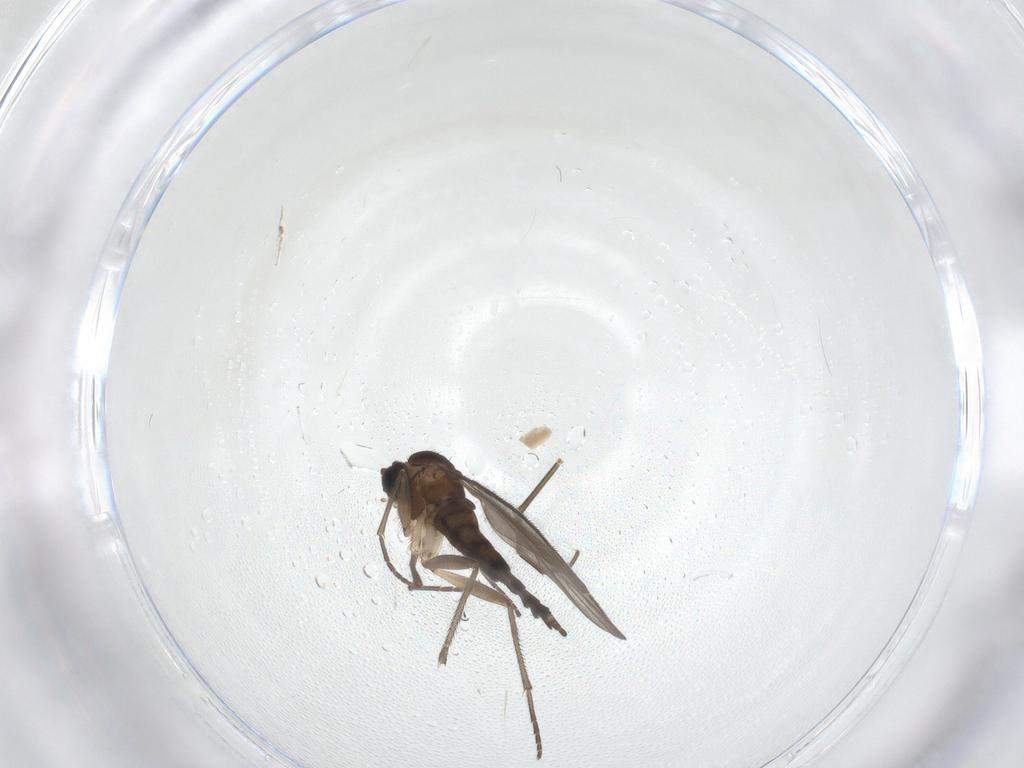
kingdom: Animalia
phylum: Arthropoda
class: Insecta
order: Diptera
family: Sciaridae
